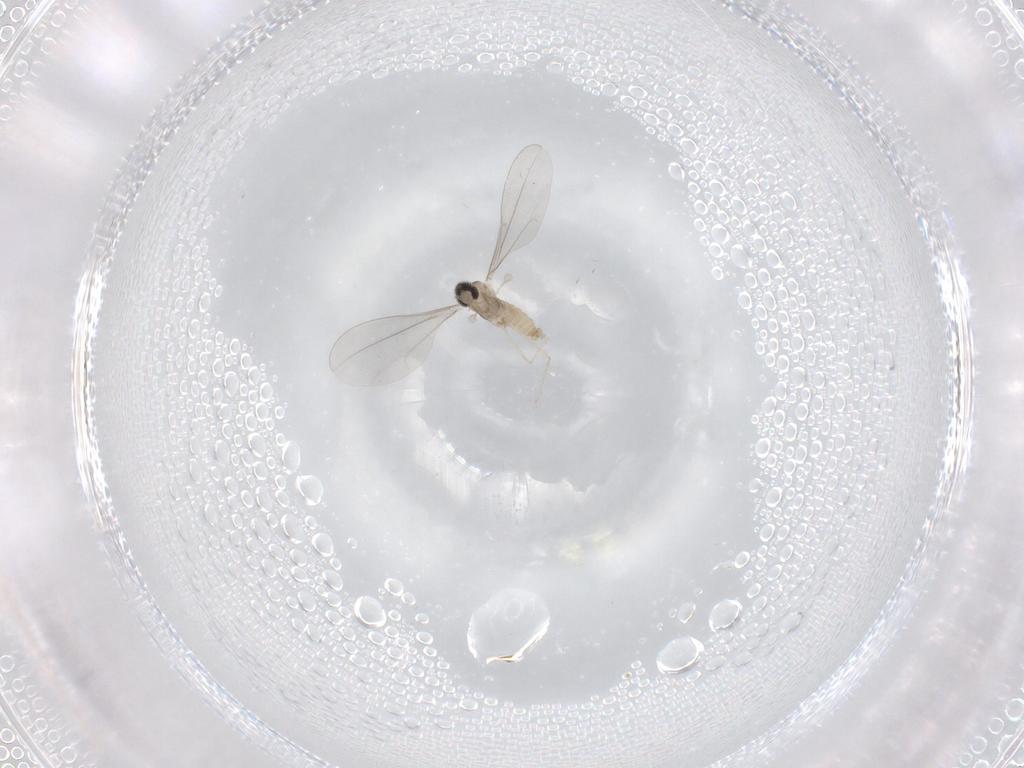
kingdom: Animalia
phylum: Arthropoda
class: Insecta
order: Diptera
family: Cecidomyiidae
